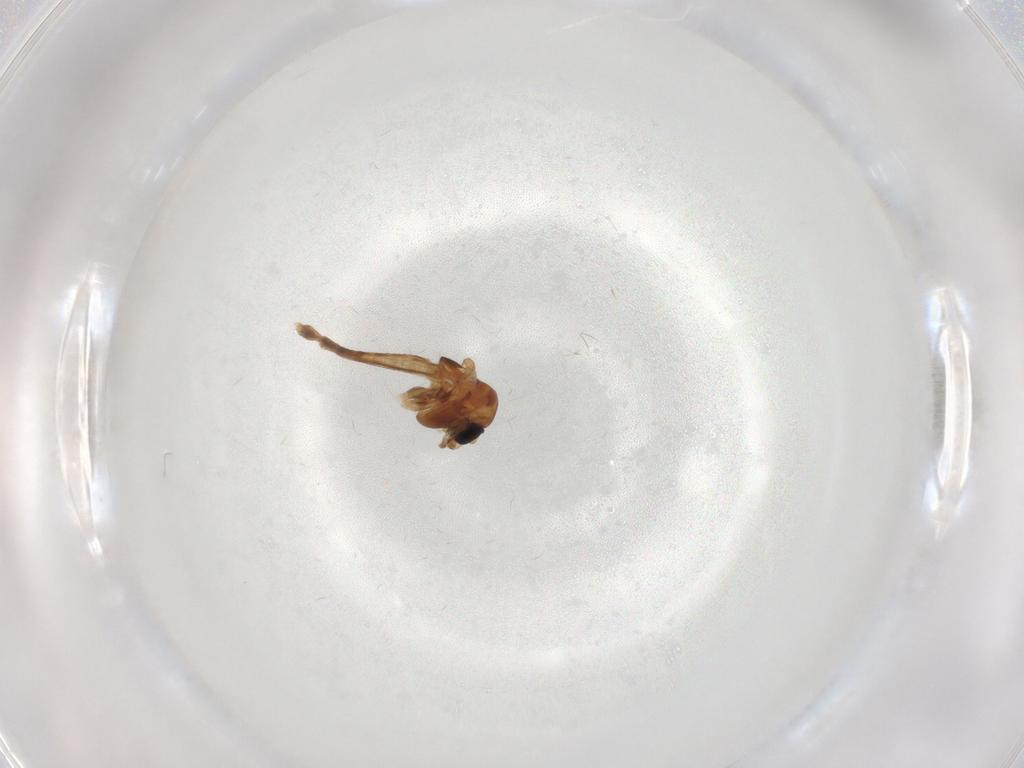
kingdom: Animalia
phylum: Arthropoda
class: Insecta
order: Diptera
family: Chironomidae
